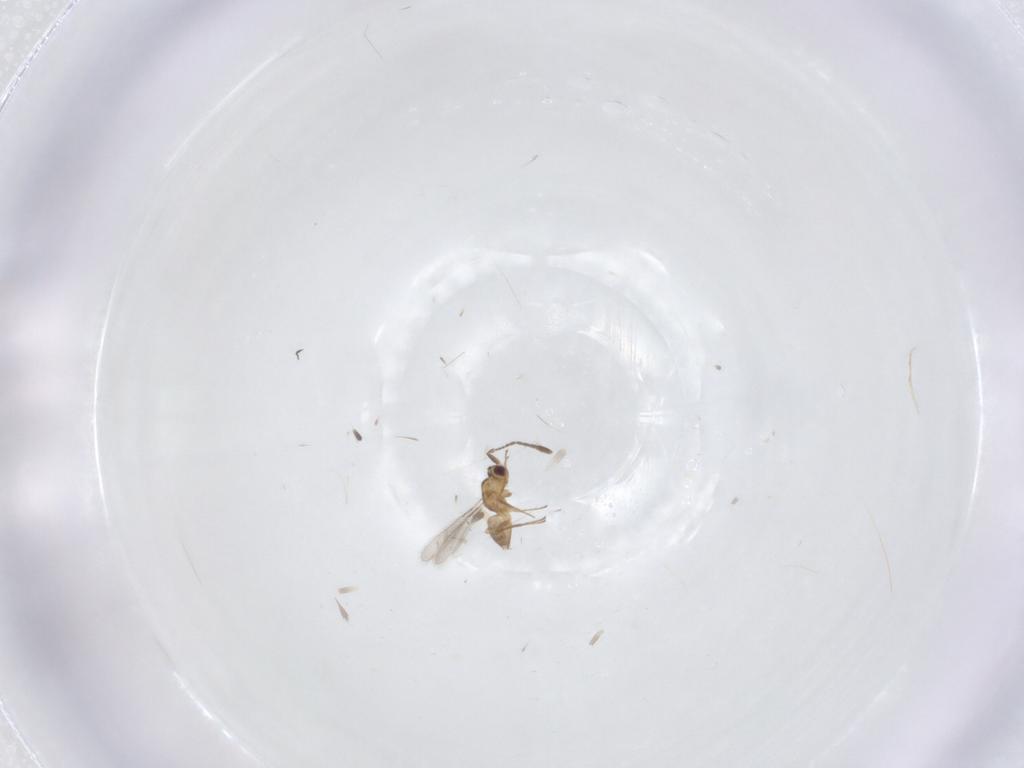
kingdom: Animalia
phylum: Arthropoda
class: Insecta
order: Hymenoptera
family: Mymaridae
